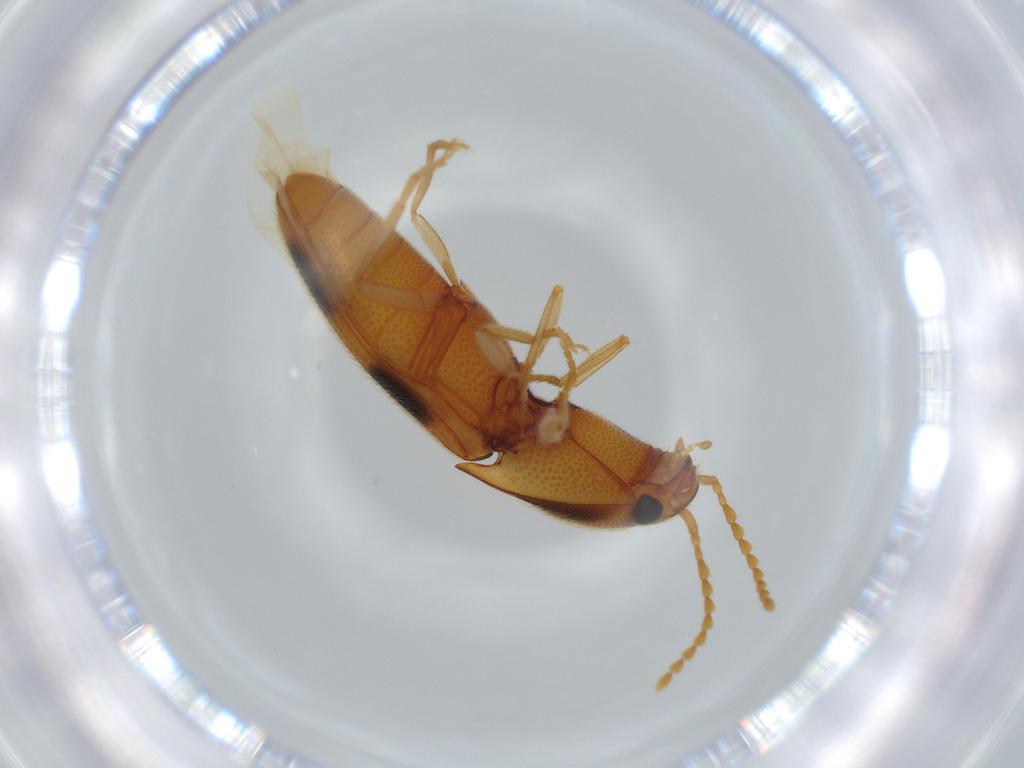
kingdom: Animalia
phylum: Arthropoda
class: Insecta
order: Coleoptera
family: Elateridae
